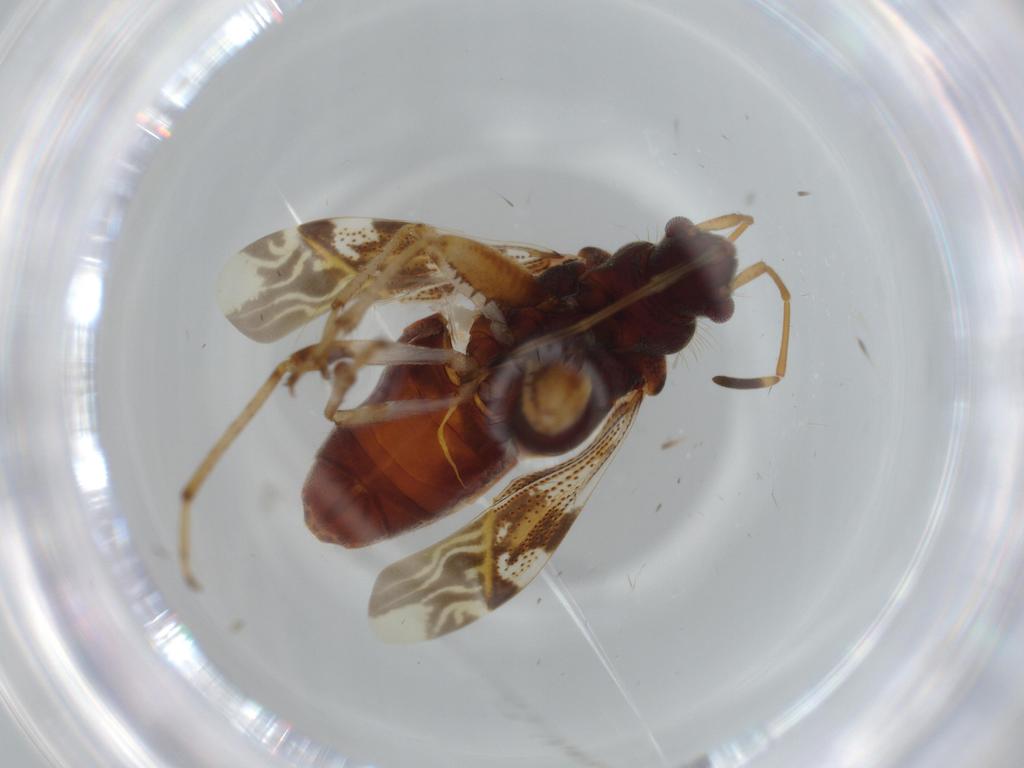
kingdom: Animalia
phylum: Arthropoda
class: Insecta
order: Hemiptera
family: Rhyparochromidae
